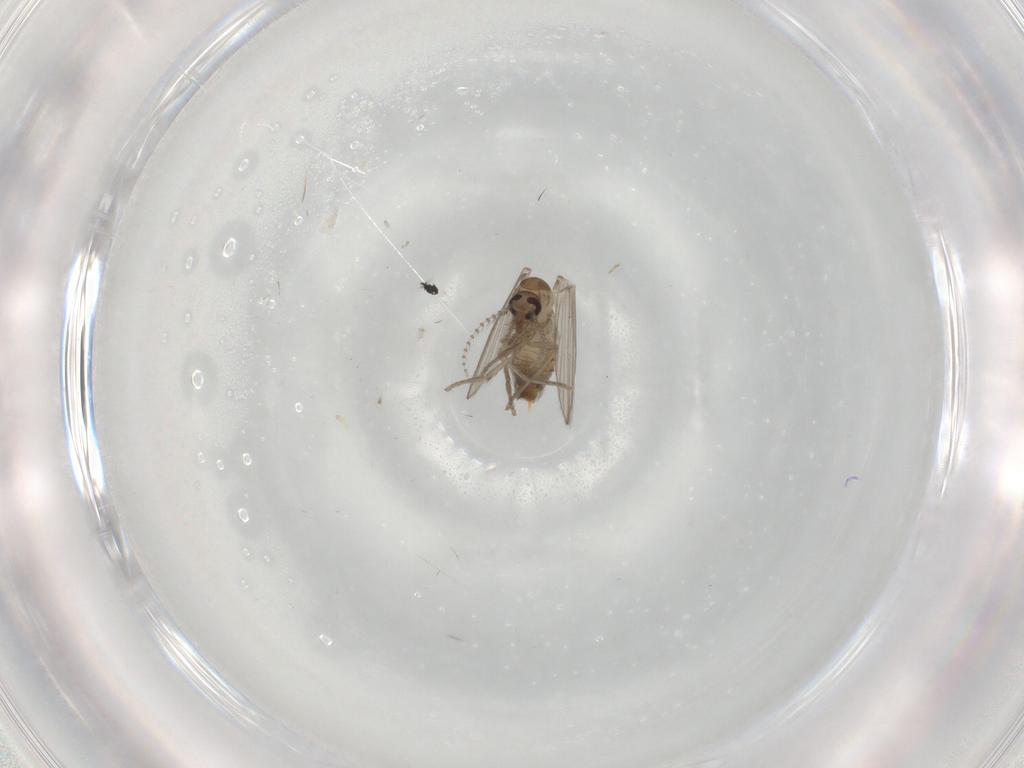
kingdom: Animalia
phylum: Arthropoda
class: Insecta
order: Diptera
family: Psychodidae
